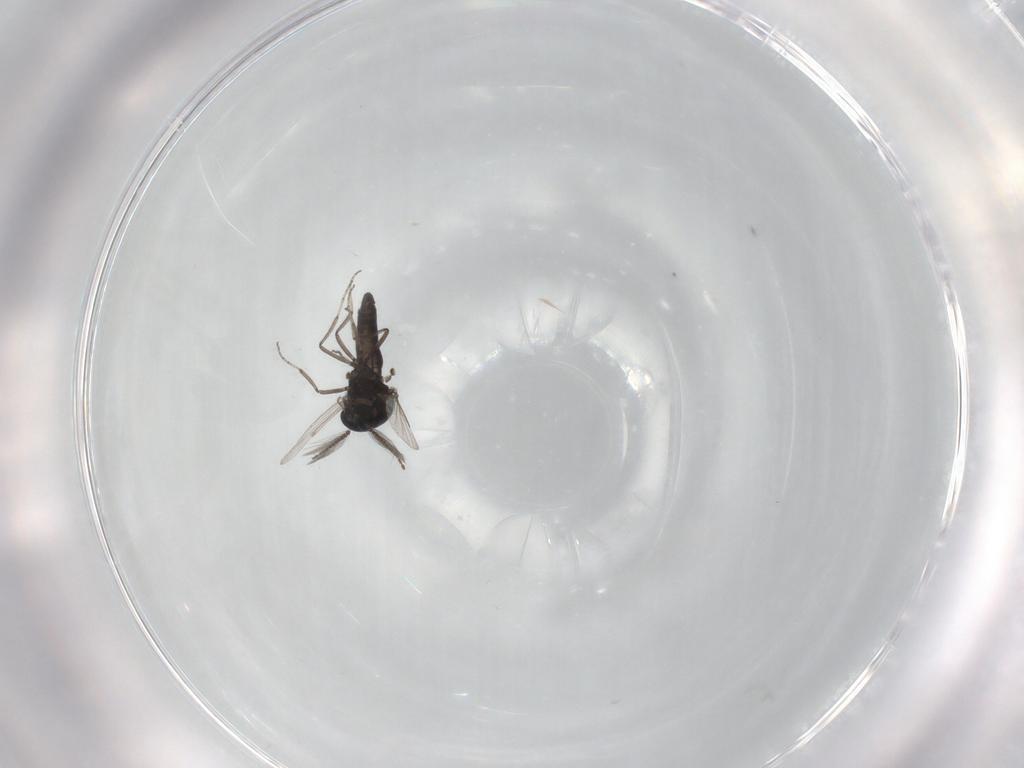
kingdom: Animalia
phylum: Arthropoda
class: Insecta
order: Diptera
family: Ceratopogonidae
